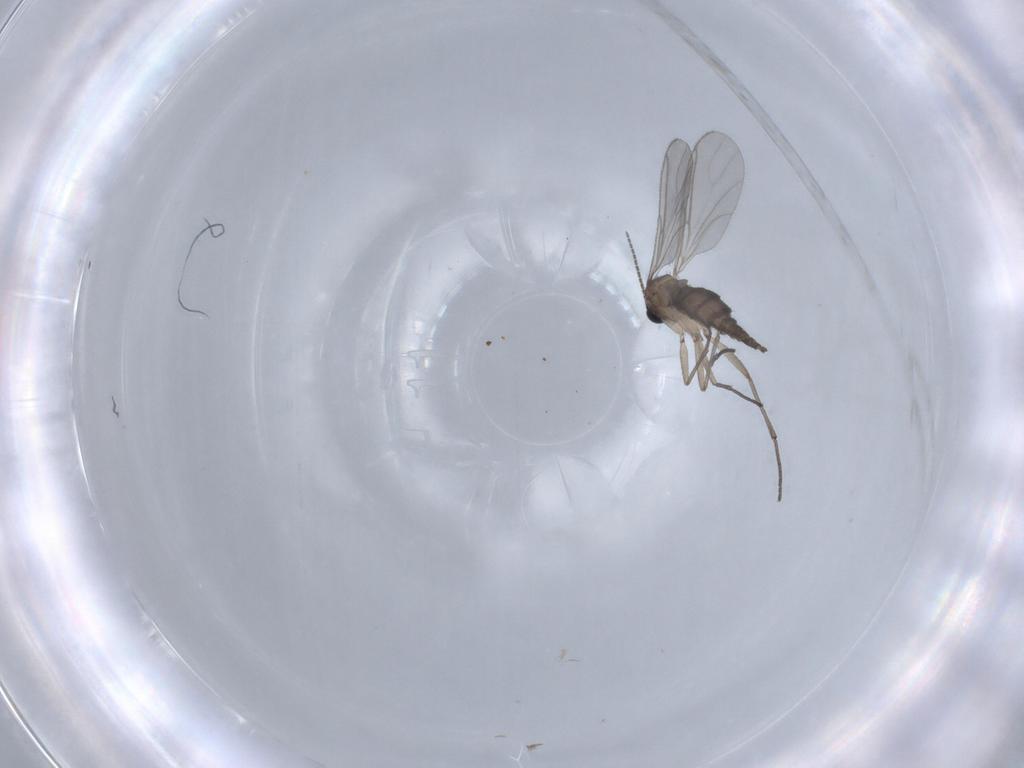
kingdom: Animalia
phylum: Arthropoda
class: Insecta
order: Diptera
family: Sciaridae
